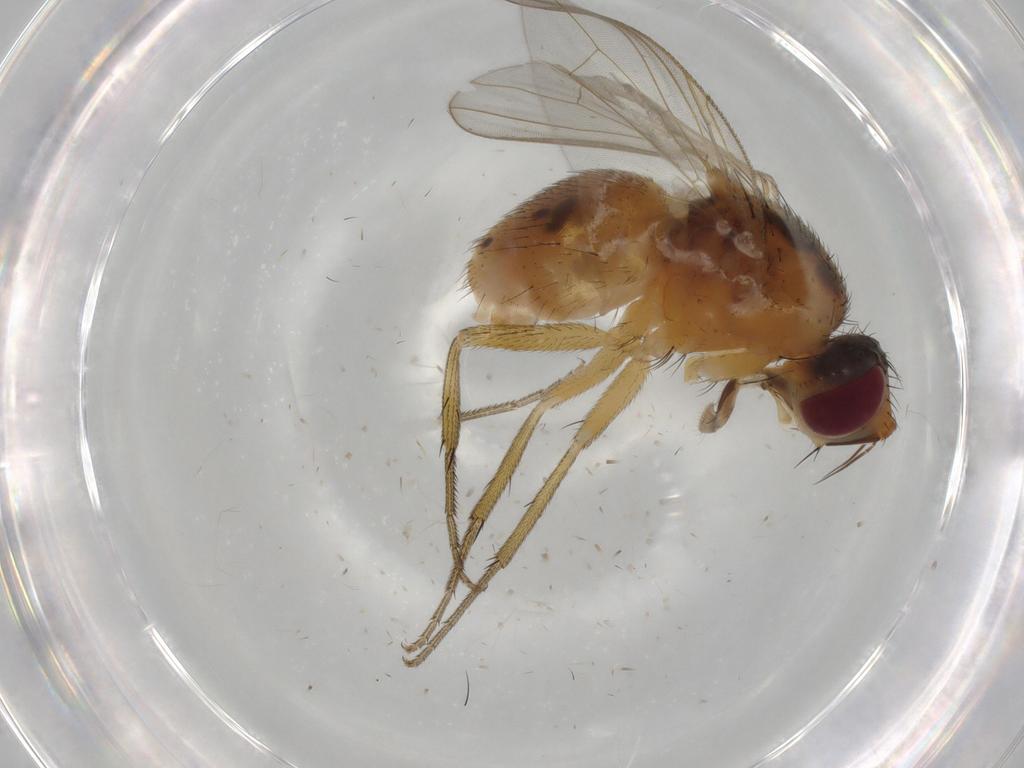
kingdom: Animalia
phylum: Arthropoda
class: Insecta
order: Diptera
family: Muscidae
